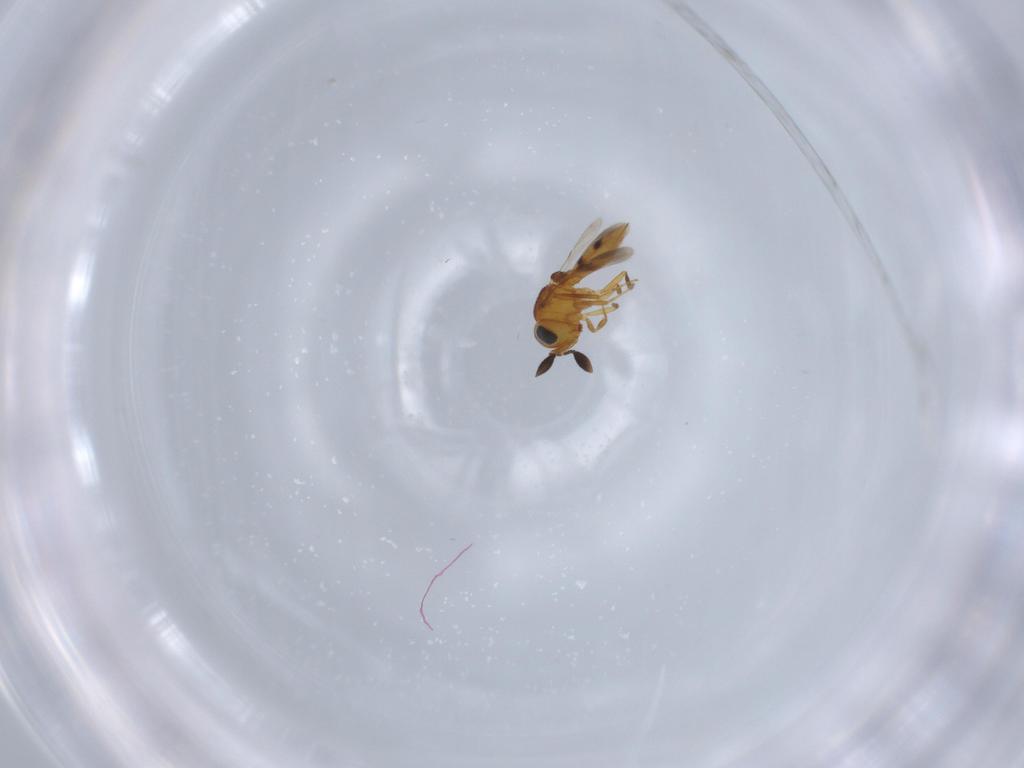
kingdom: Animalia
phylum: Arthropoda
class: Insecta
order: Hymenoptera
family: Scelionidae
